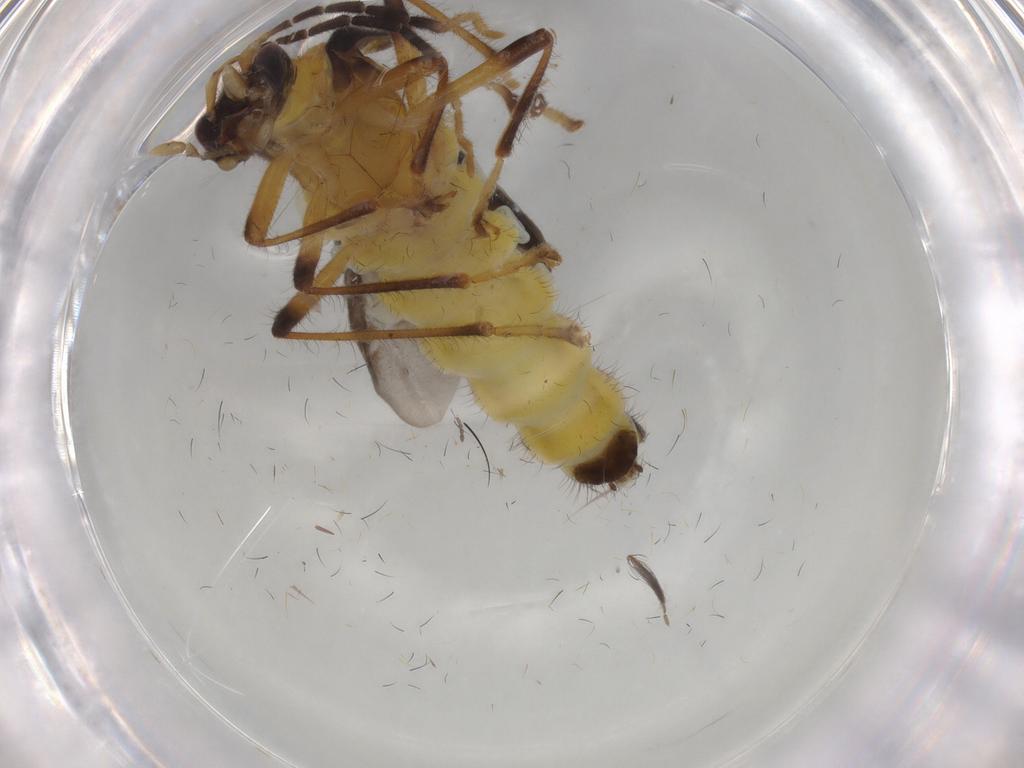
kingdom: Animalia
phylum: Arthropoda
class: Insecta
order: Coleoptera
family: Cantharidae
